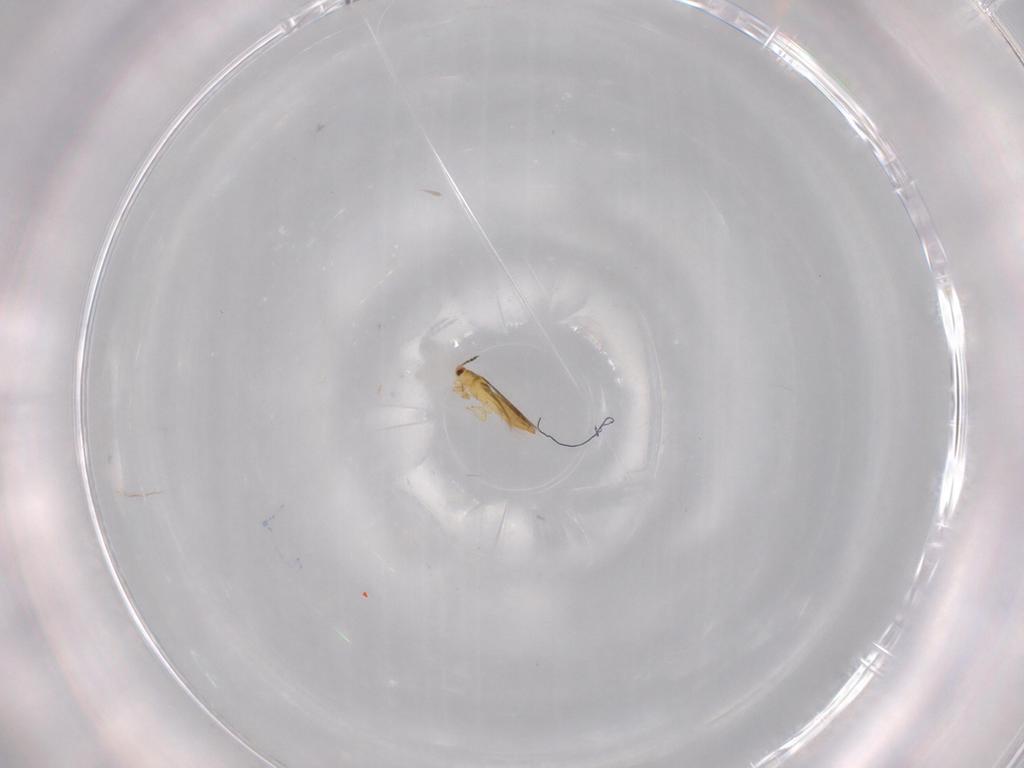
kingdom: Animalia
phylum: Arthropoda
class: Insecta
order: Thysanoptera
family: Thripidae
